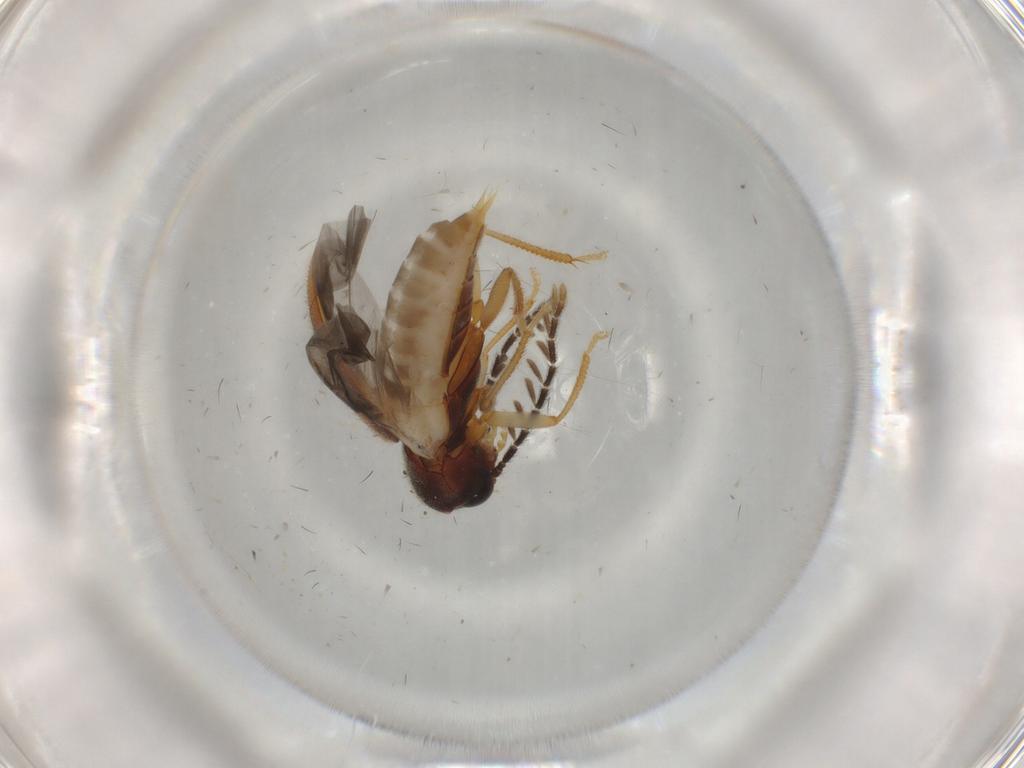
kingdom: Animalia
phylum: Arthropoda
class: Insecta
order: Coleoptera
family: Ptilodactylidae
